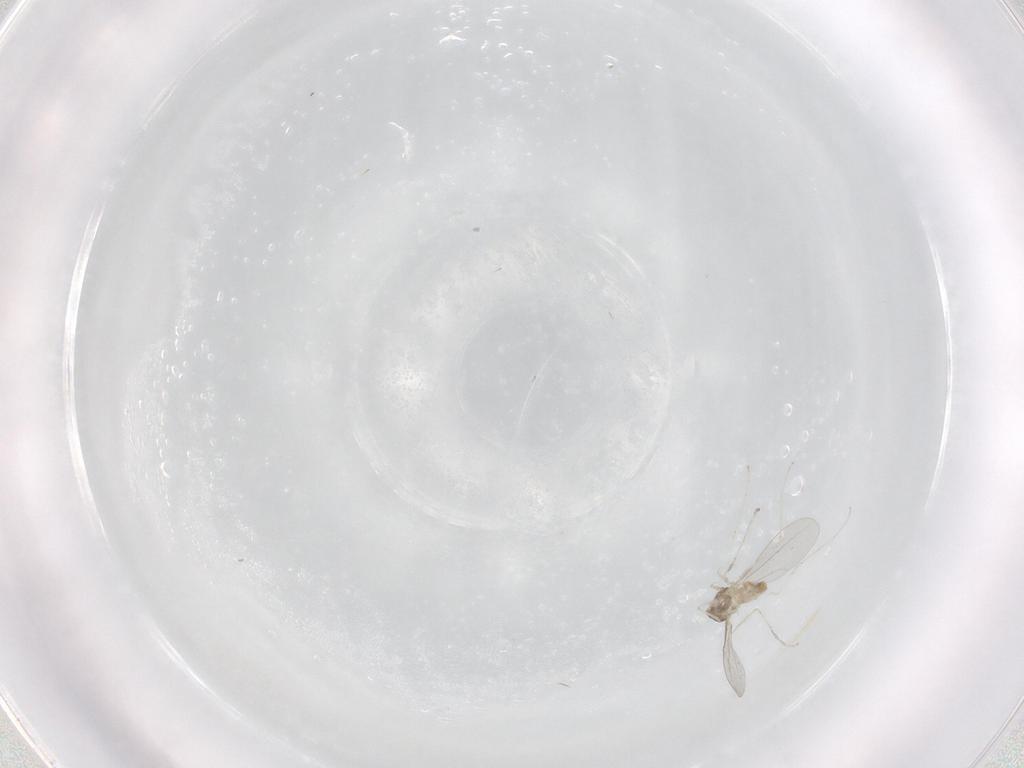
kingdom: Animalia
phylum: Arthropoda
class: Insecta
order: Diptera
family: Cecidomyiidae
